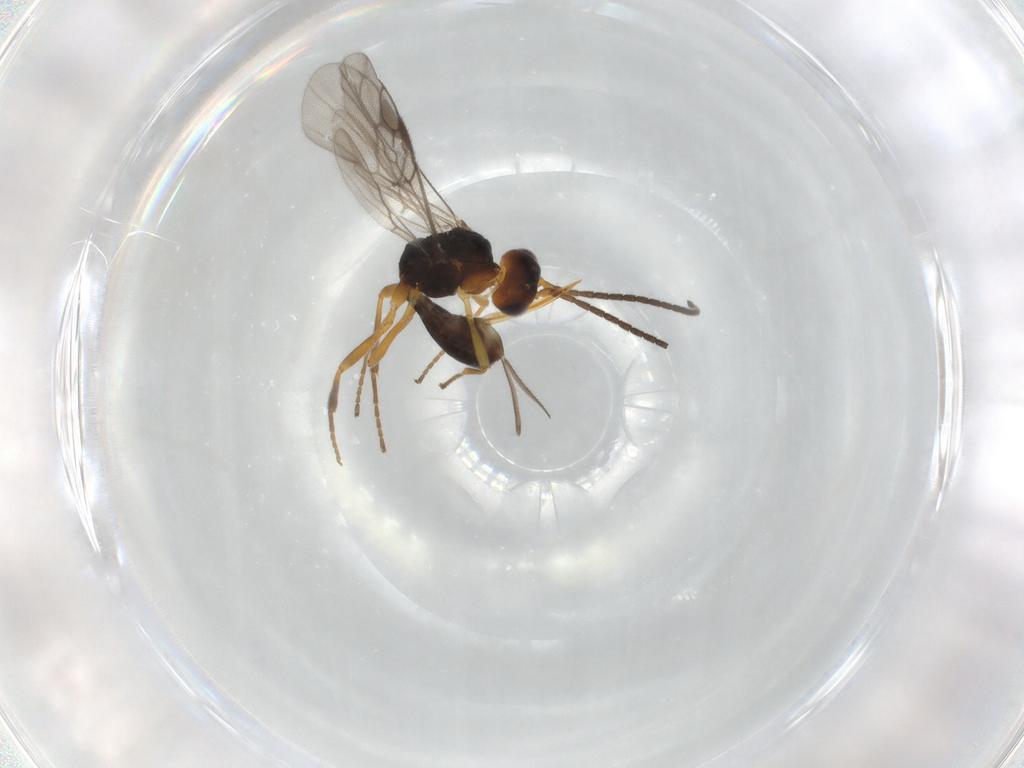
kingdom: Animalia
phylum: Arthropoda
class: Insecta
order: Hymenoptera
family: Braconidae
